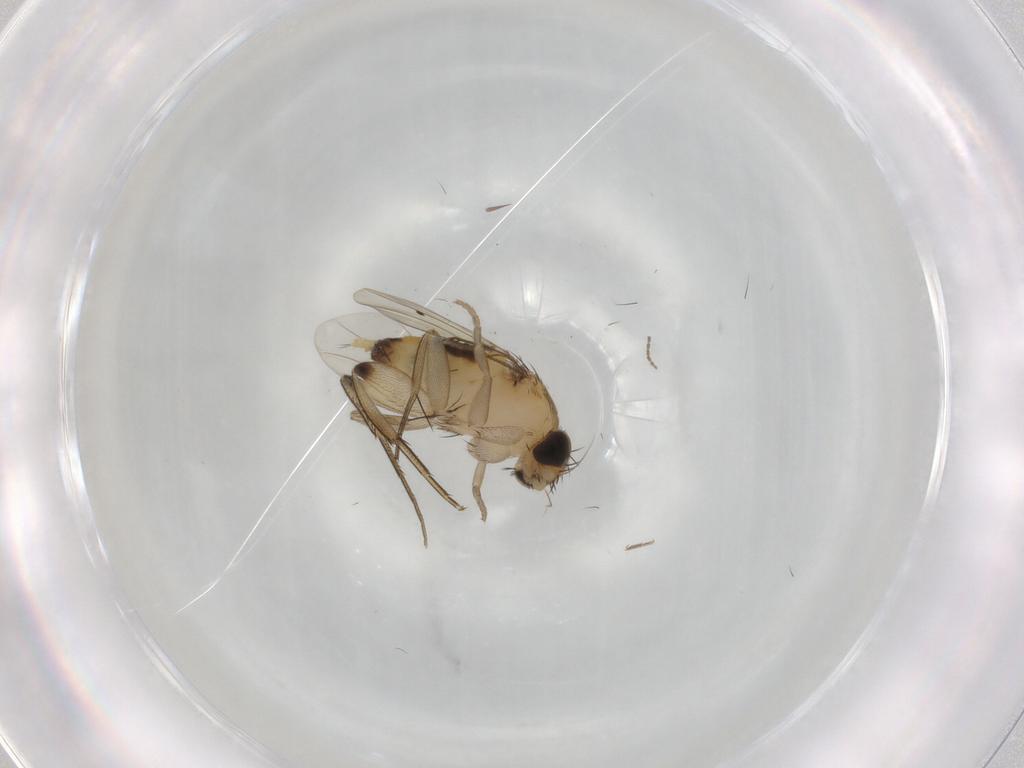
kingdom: Animalia
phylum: Arthropoda
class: Insecta
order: Diptera
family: Phoridae
